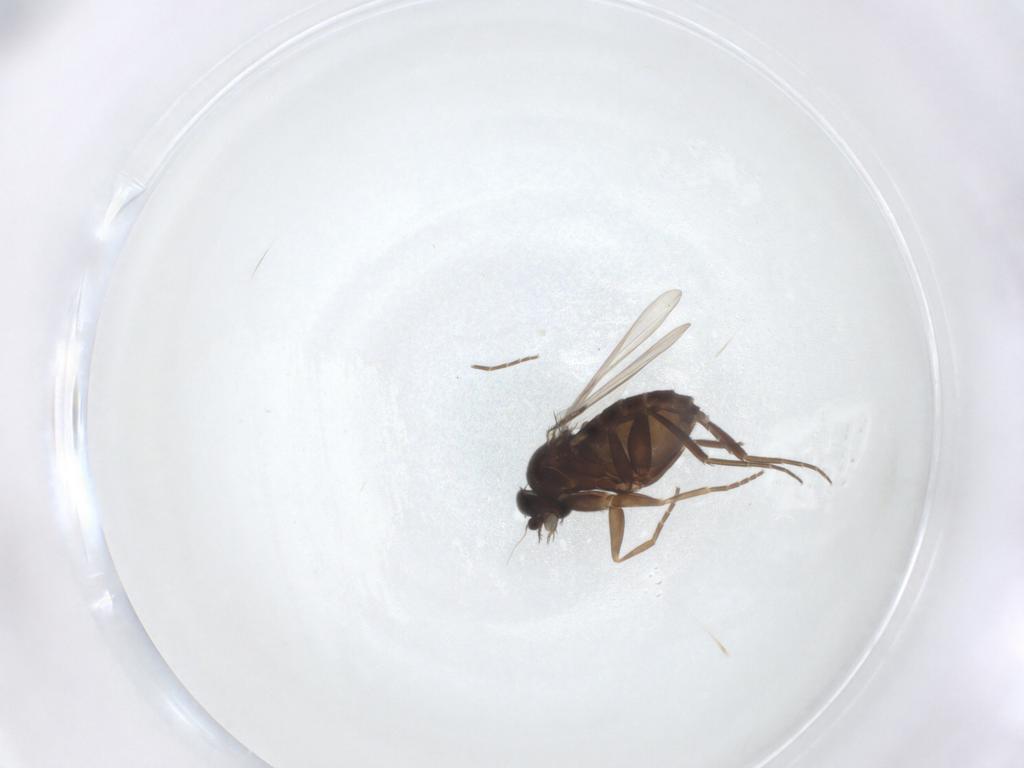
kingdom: Animalia
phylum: Arthropoda
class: Insecta
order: Diptera
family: Phoridae
